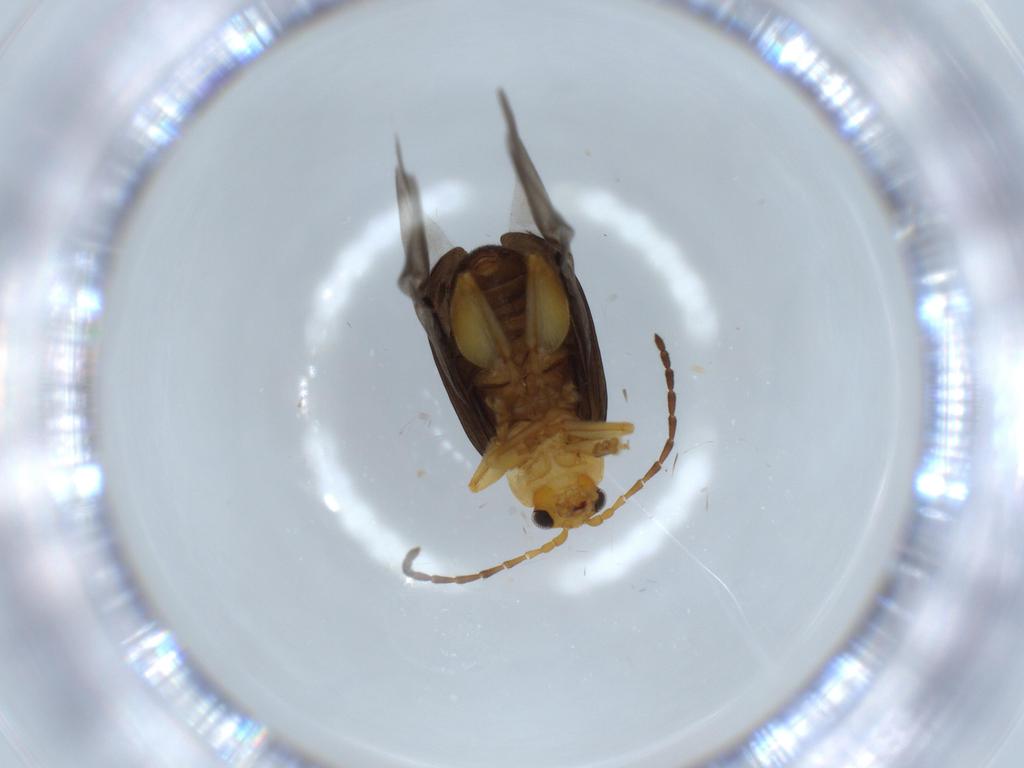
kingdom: Animalia
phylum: Arthropoda
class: Insecta
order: Coleoptera
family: Chrysomelidae
